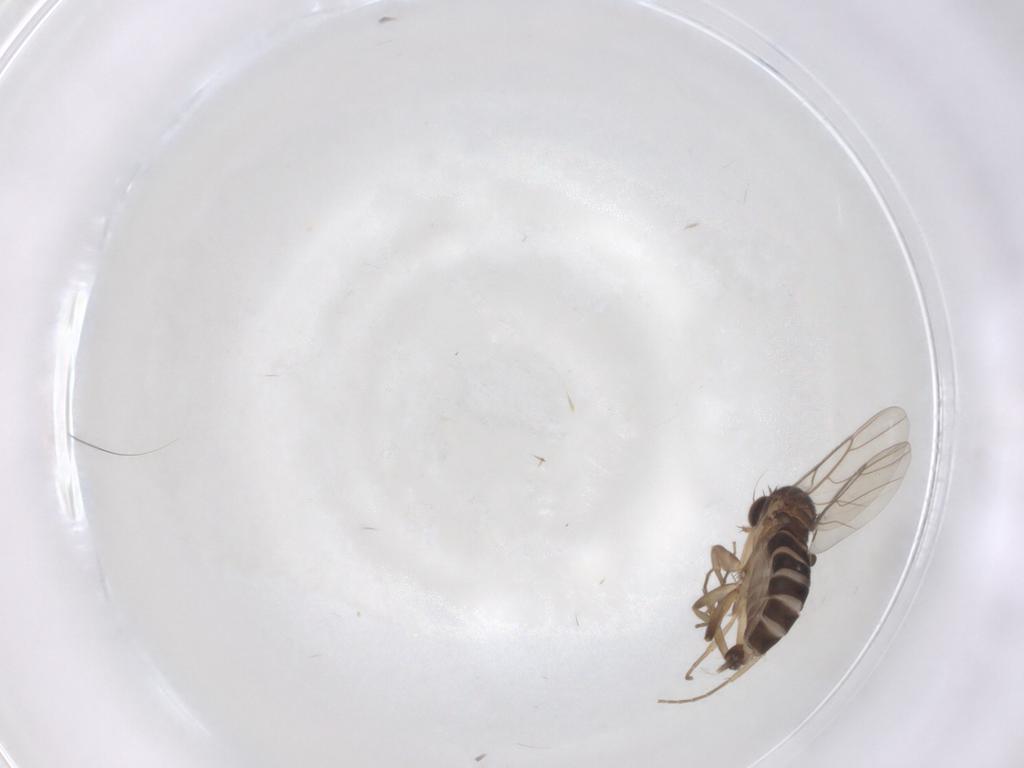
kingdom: Animalia
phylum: Arthropoda
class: Insecta
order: Diptera
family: Phoridae
